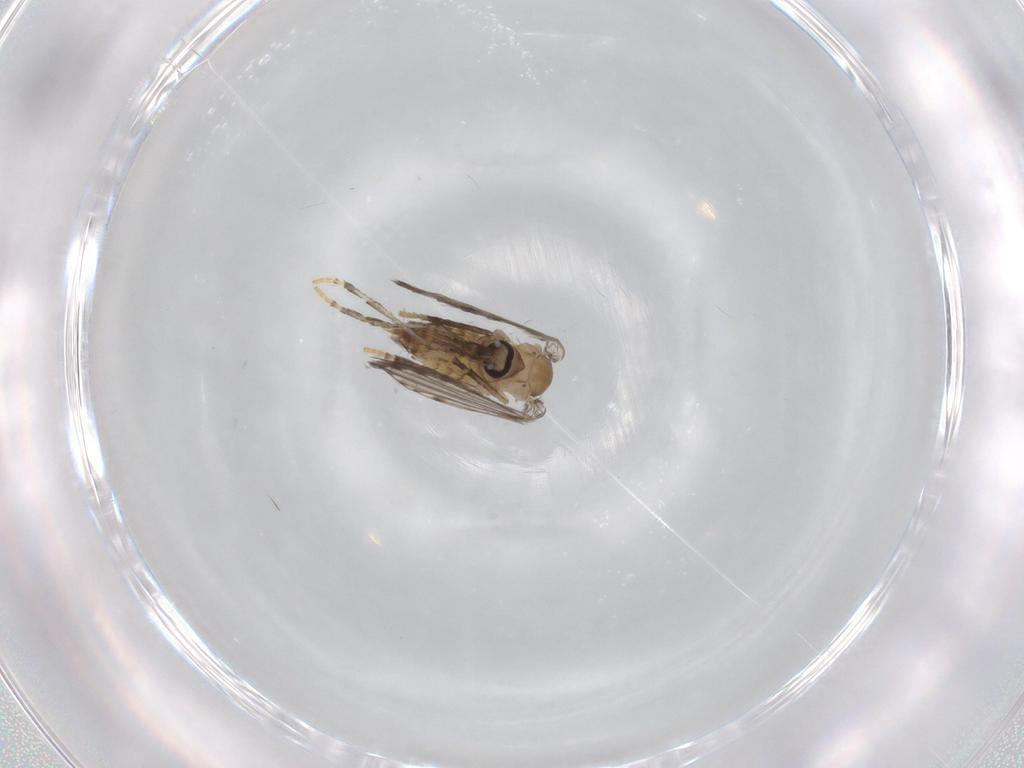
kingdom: Animalia
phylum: Arthropoda
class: Insecta
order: Diptera
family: Psychodidae
